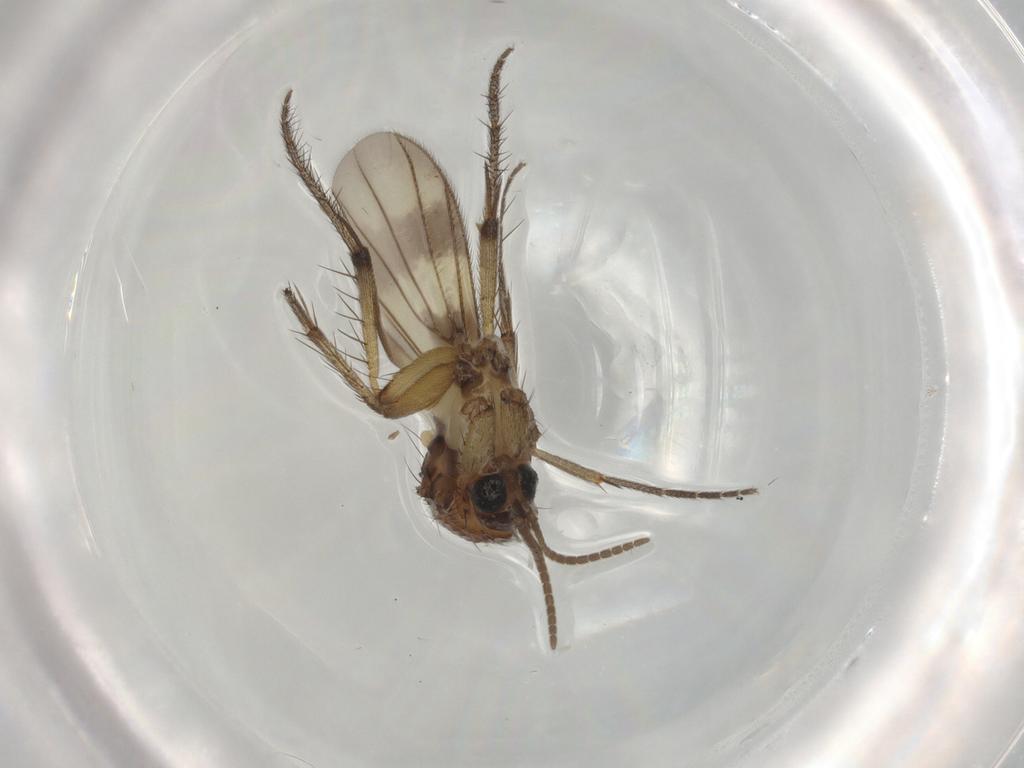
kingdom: Animalia
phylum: Arthropoda
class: Insecta
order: Diptera
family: Mycetophilidae
